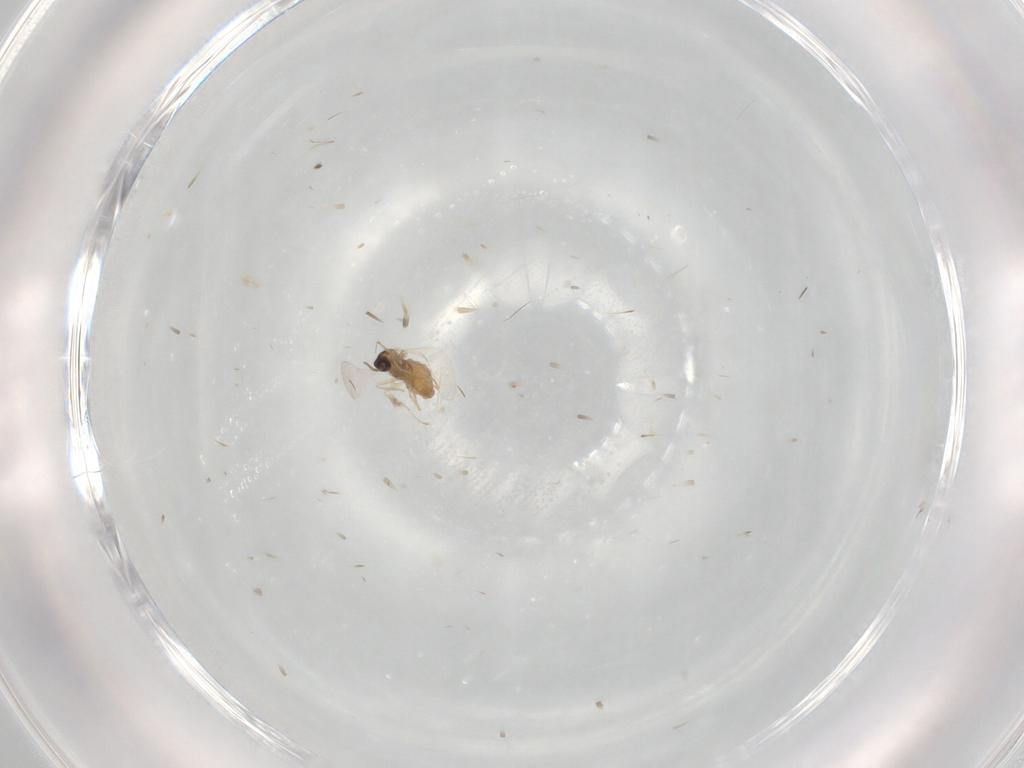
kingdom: Animalia
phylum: Arthropoda
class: Insecta
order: Diptera
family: Cecidomyiidae
